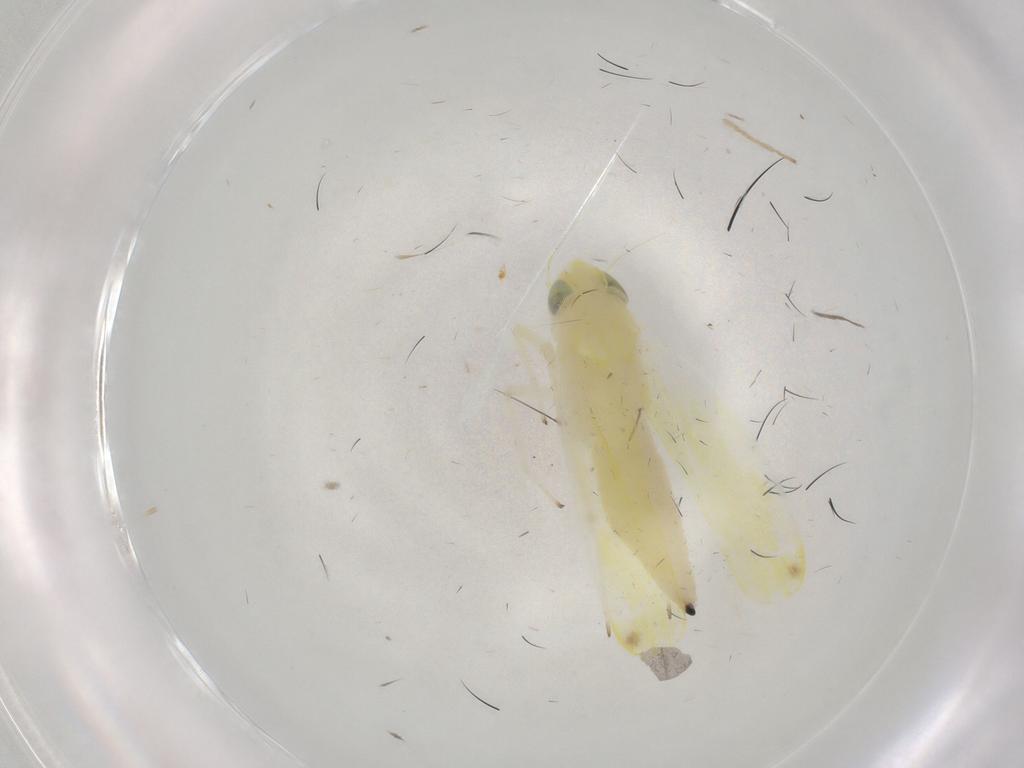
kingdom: Animalia
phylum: Arthropoda
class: Insecta
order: Hemiptera
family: Cicadellidae
